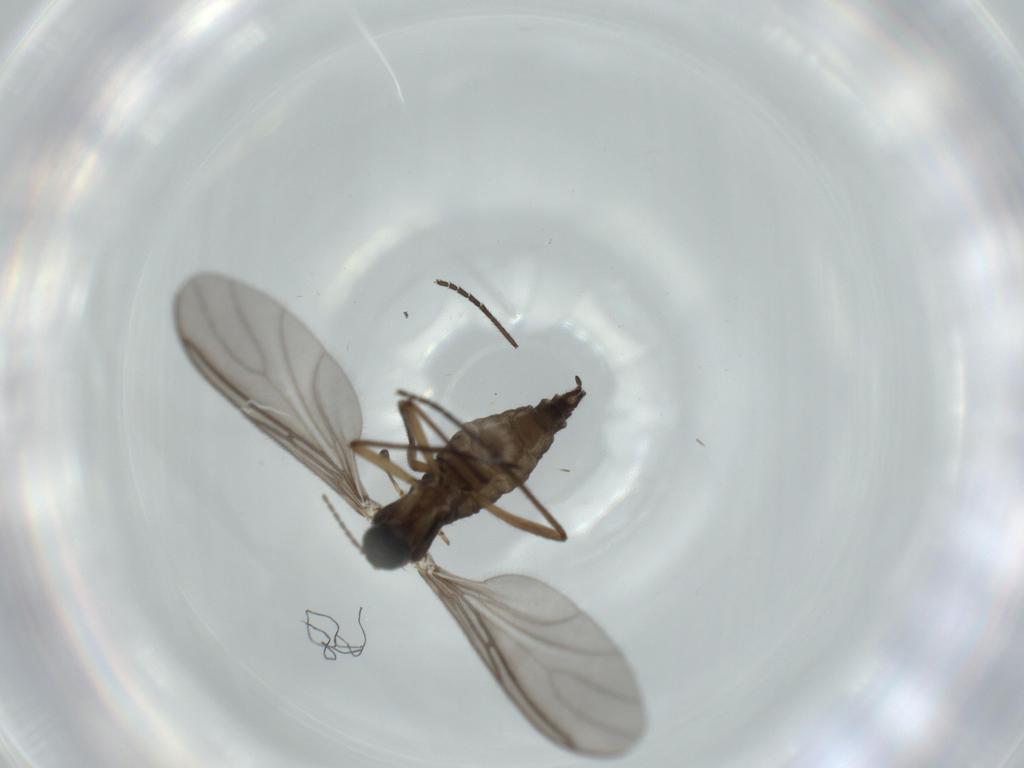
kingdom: Animalia
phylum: Arthropoda
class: Insecta
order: Diptera
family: Sciaridae
